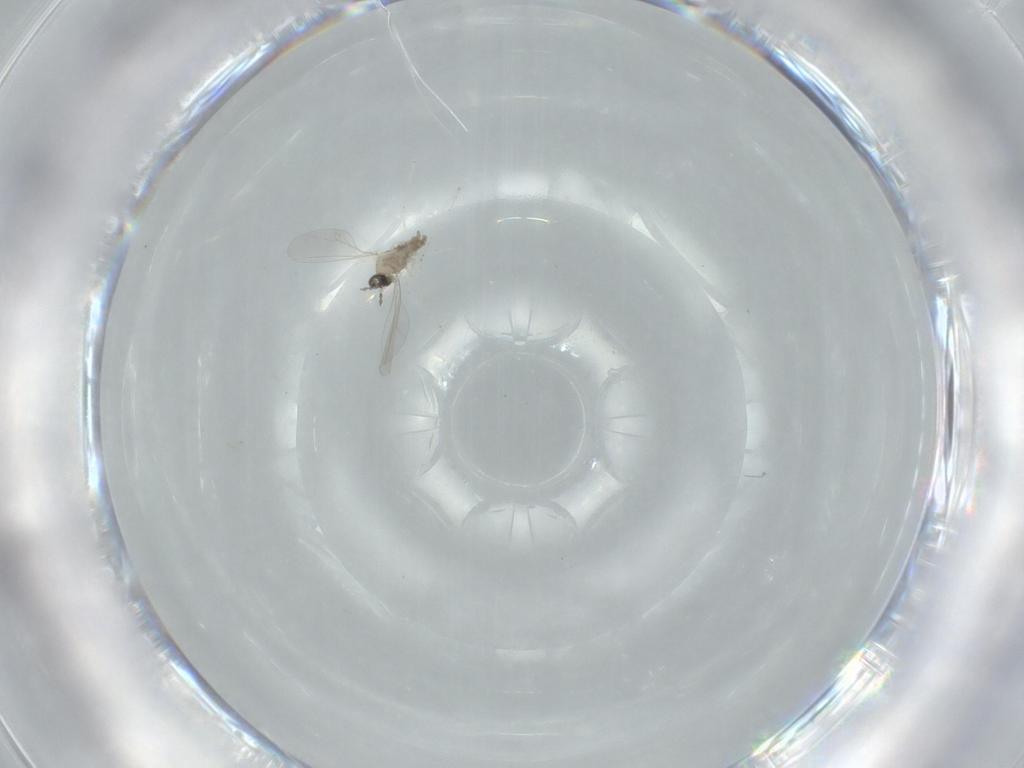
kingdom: Animalia
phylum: Arthropoda
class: Insecta
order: Diptera
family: Cecidomyiidae
